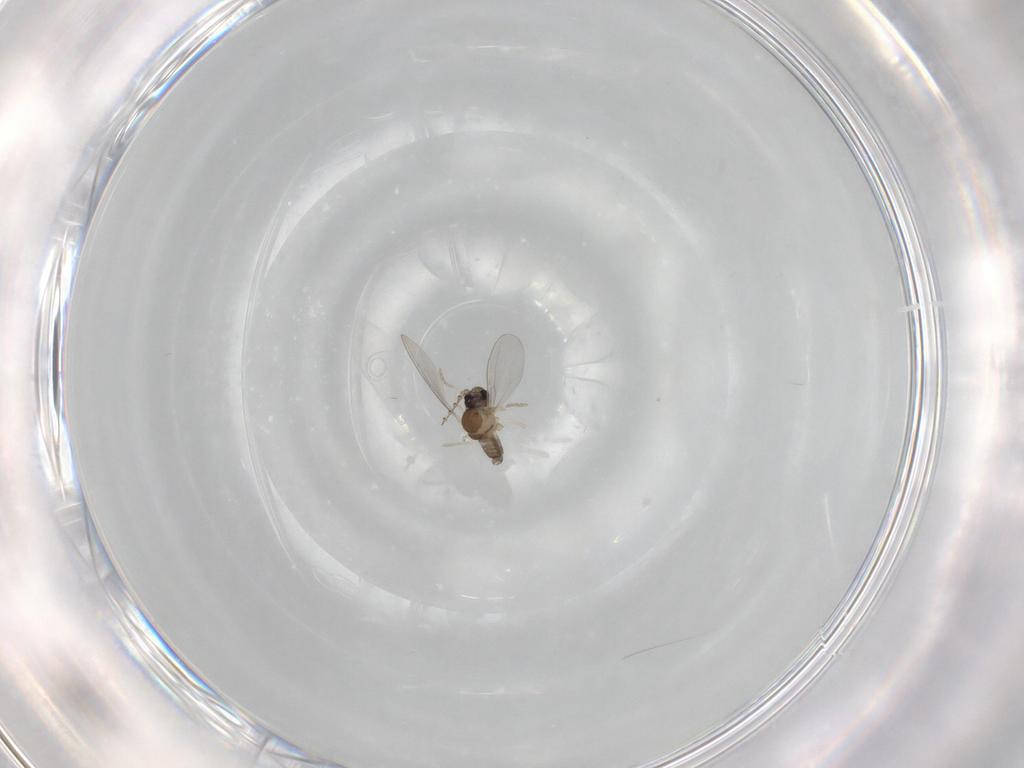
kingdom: Animalia
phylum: Arthropoda
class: Insecta
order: Diptera
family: Cecidomyiidae
